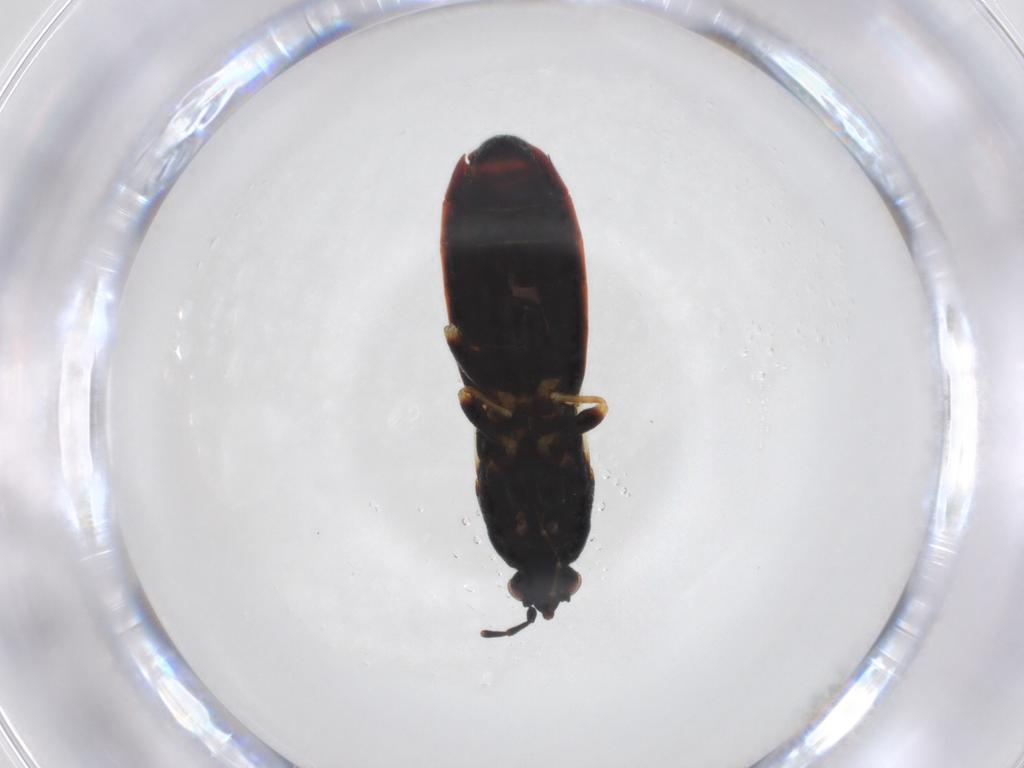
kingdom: Animalia
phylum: Arthropoda
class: Insecta
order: Hemiptera
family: Blissidae
